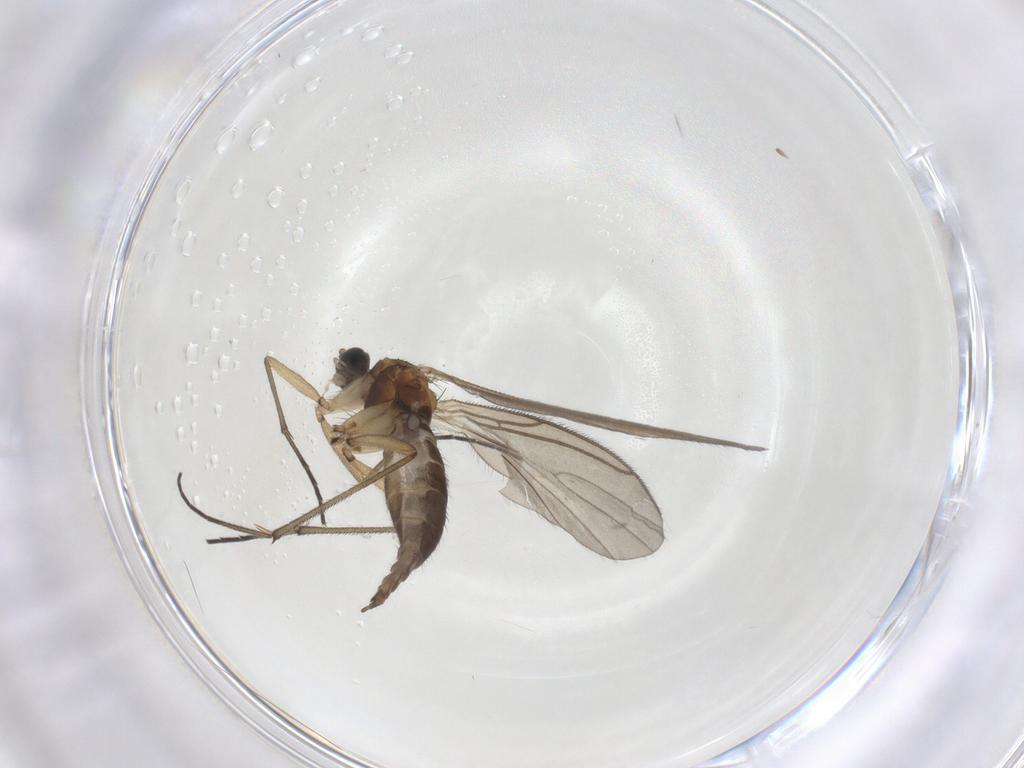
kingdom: Animalia
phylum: Arthropoda
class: Insecta
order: Diptera
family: Sciaridae
